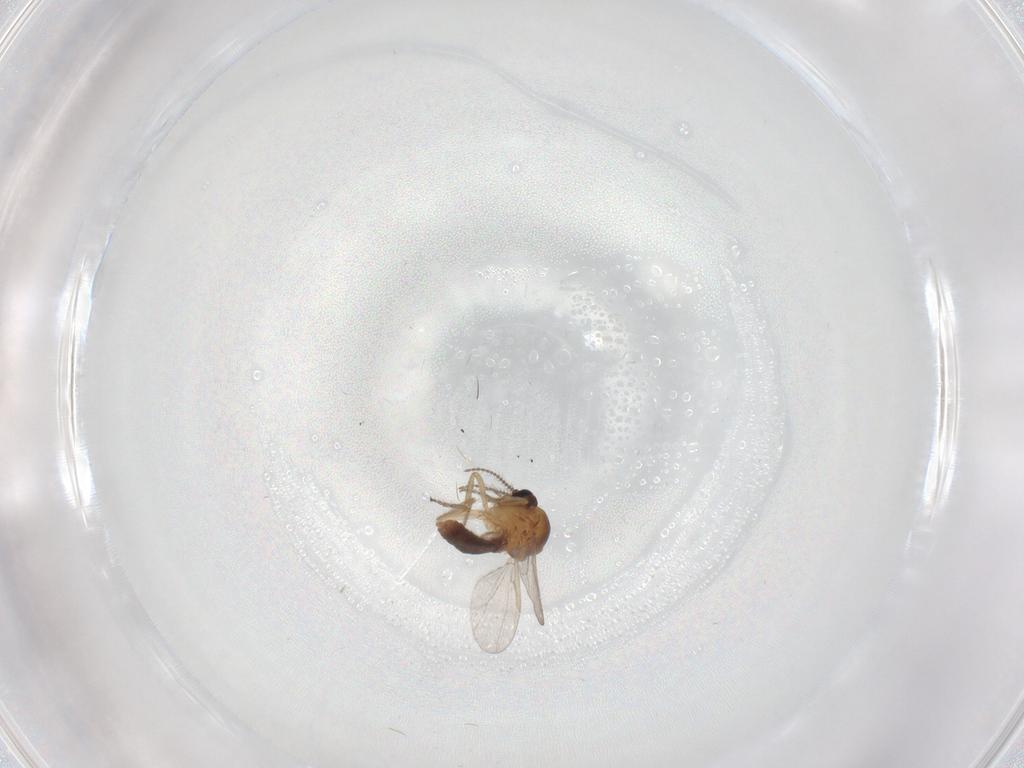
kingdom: Animalia
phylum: Arthropoda
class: Insecta
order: Diptera
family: Ceratopogonidae
